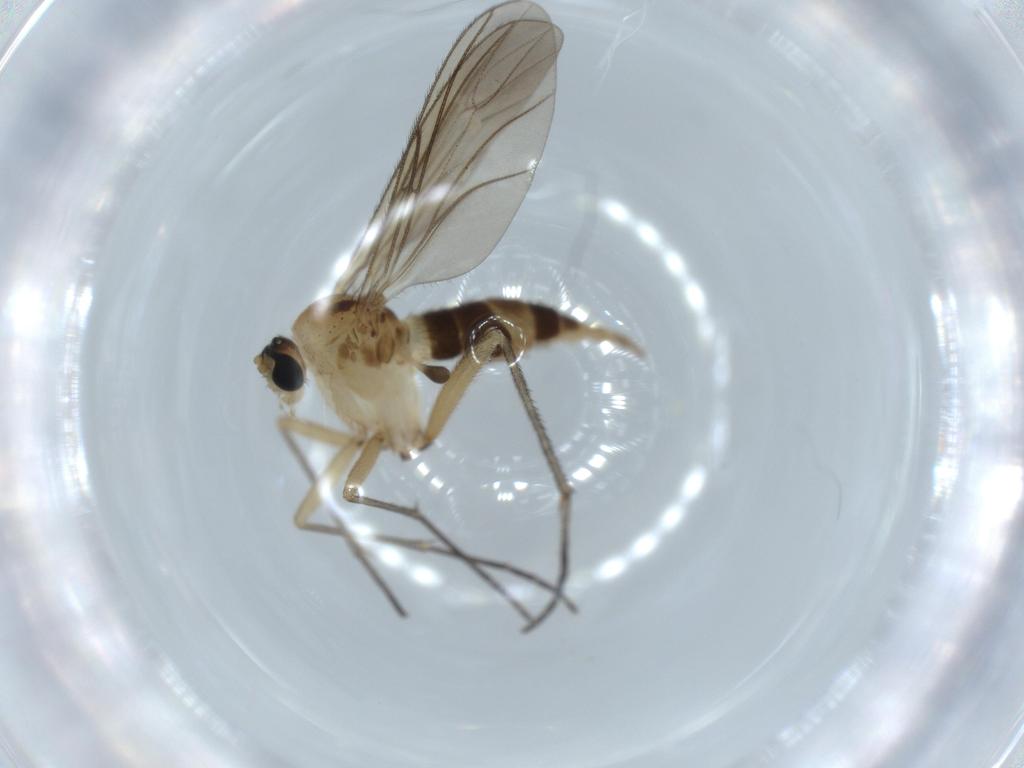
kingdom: Animalia
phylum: Arthropoda
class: Insecta
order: Diptera
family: Sciaridae
